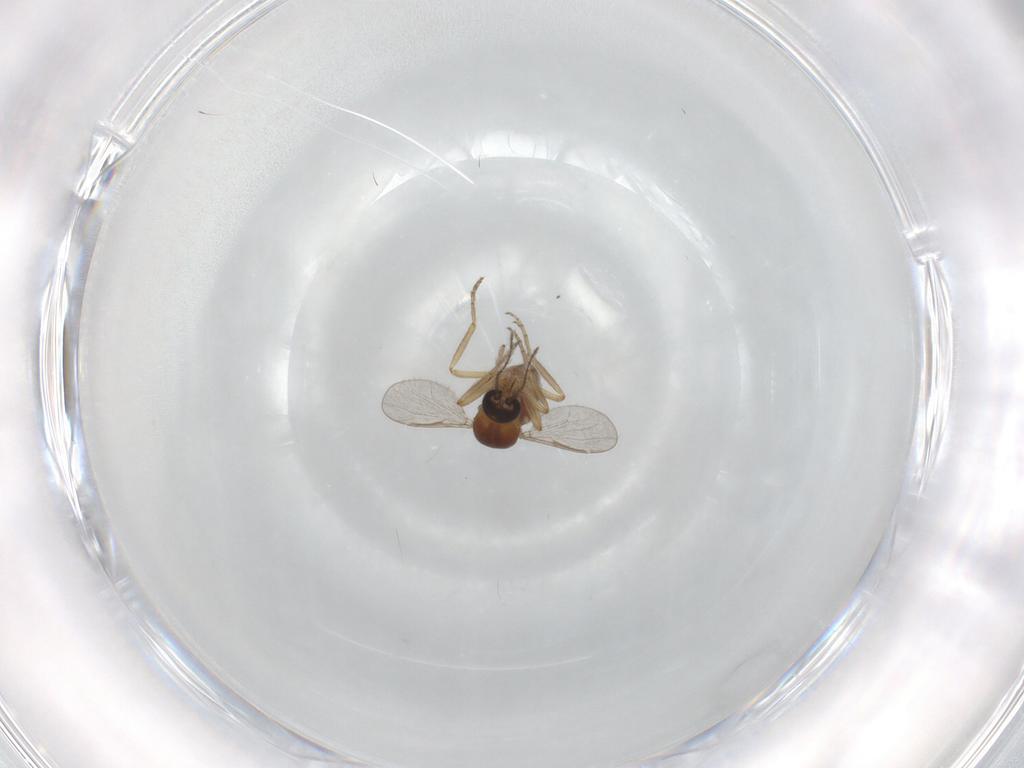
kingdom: Animalia
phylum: Arthropoda
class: Insecta
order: Diptera
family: Ceratopogonidae
